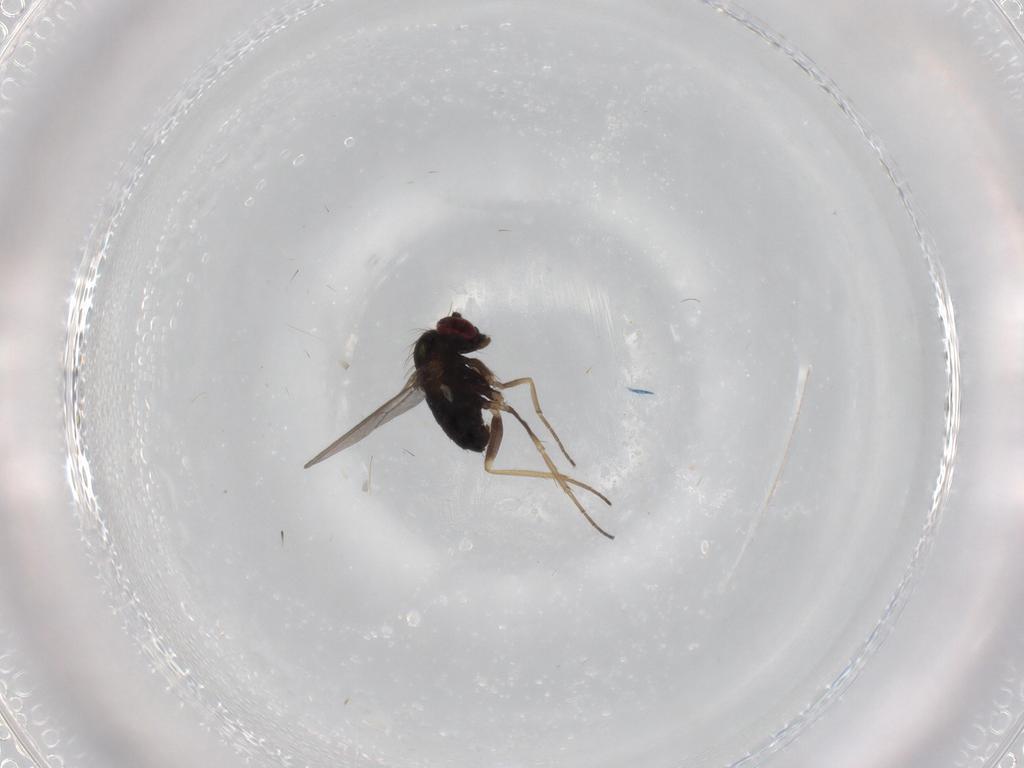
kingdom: Animalia
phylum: Arthropoda
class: Insecta
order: Diptera
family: Dolichopodidae
